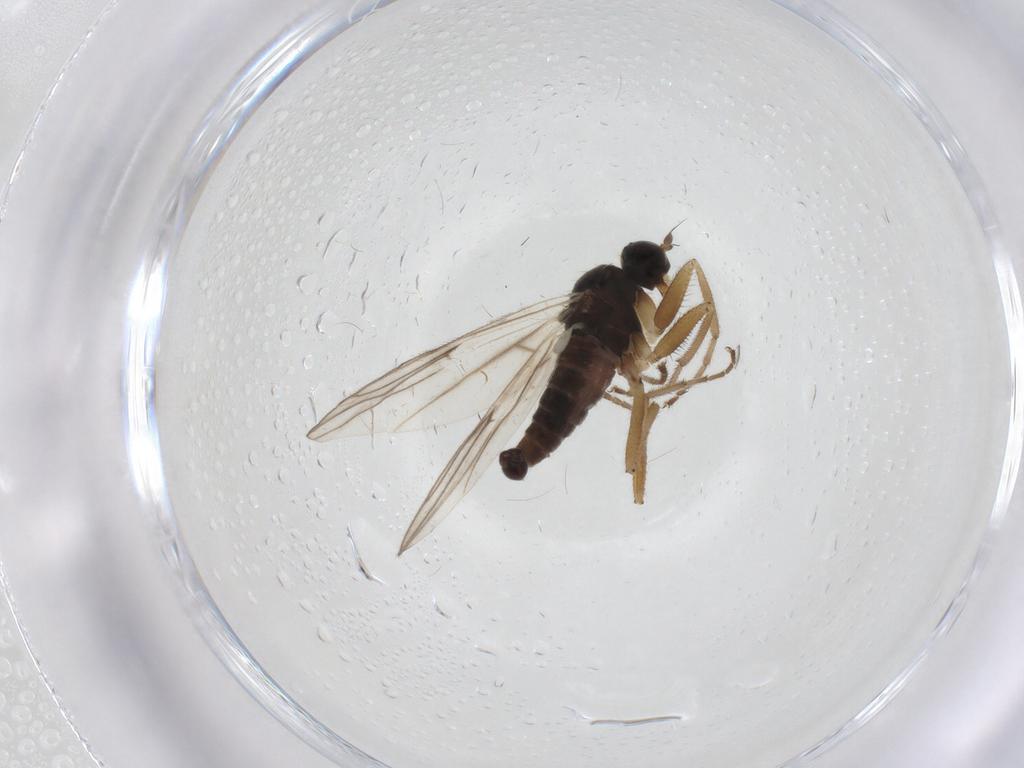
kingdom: Animalia
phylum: Arthropoda
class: Insecta
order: Diptera
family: Hybotidae
